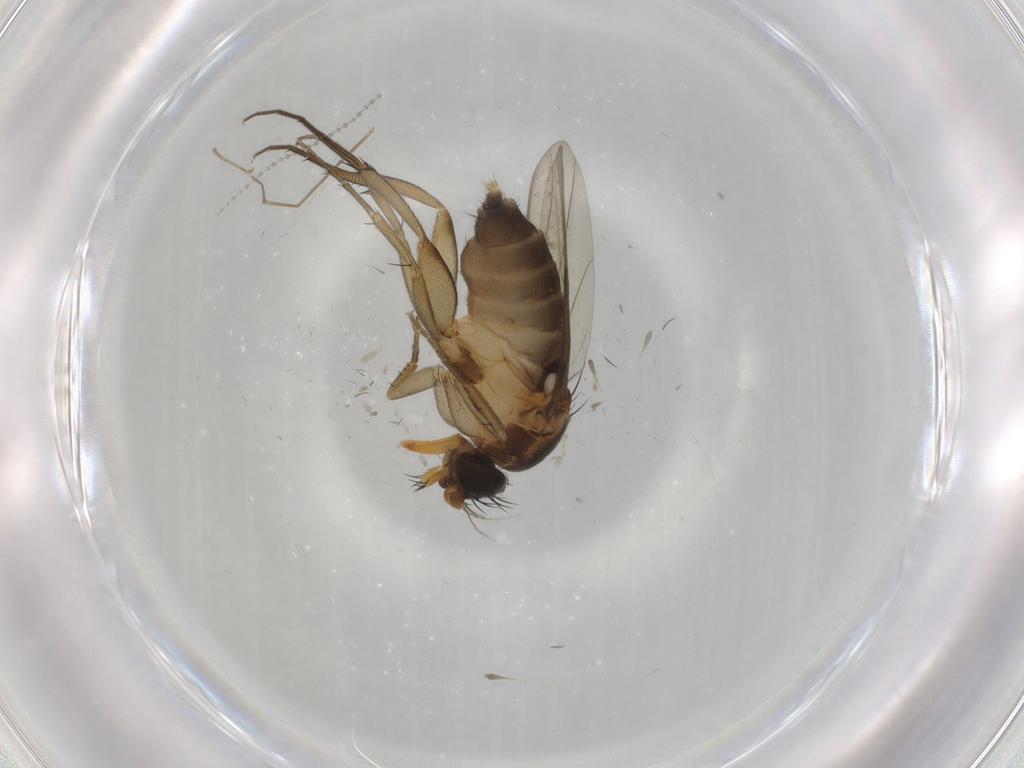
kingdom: Animalia
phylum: Arthropoda
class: Insecta
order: Diptera
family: Phoridae
